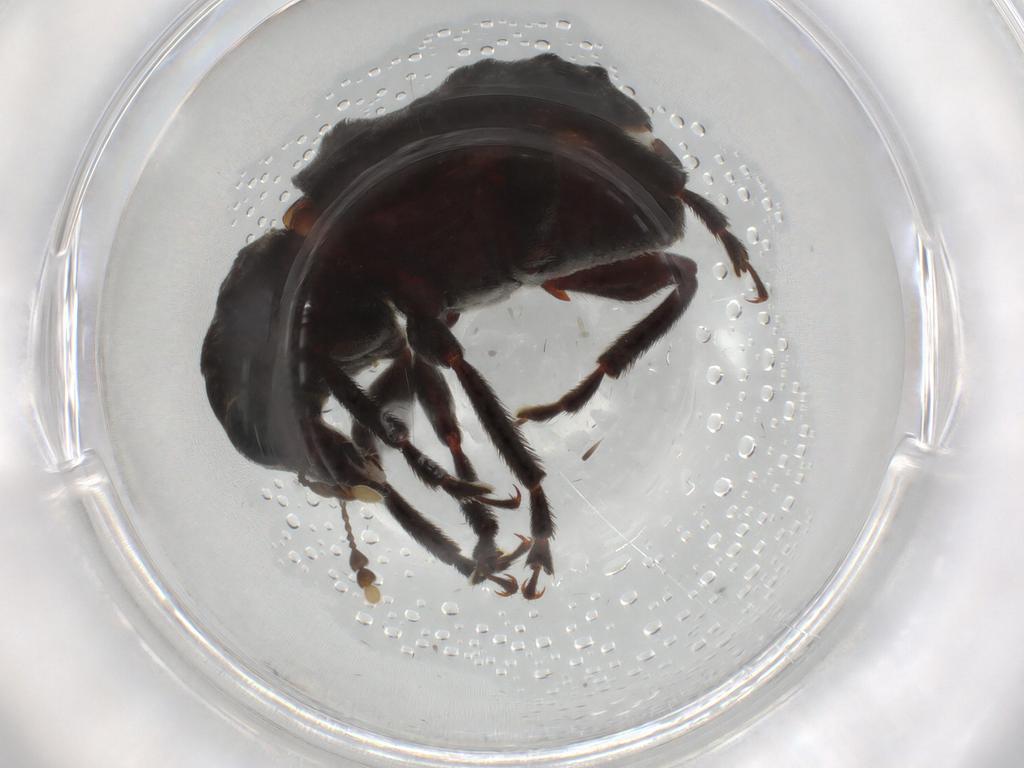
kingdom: Animalia
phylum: Arthropoda
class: Insecta
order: Coleoptera
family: Anthribidae
